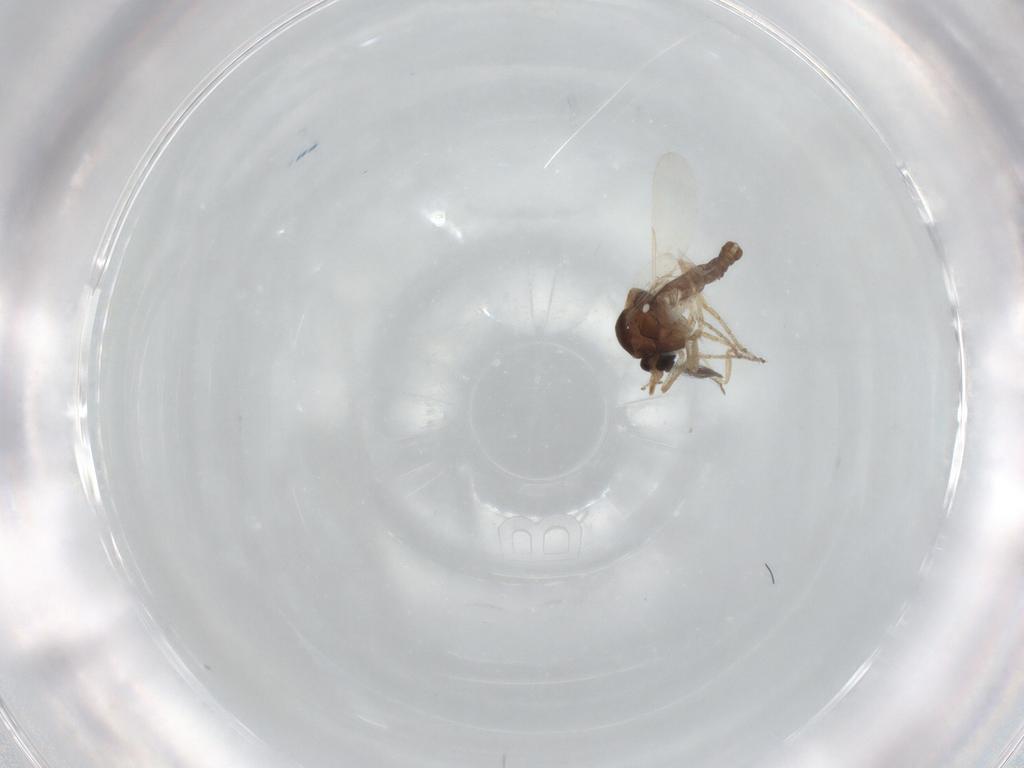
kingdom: Animalia
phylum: Arthropoda
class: Insecta
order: Diptera
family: Ceratopogonidae
